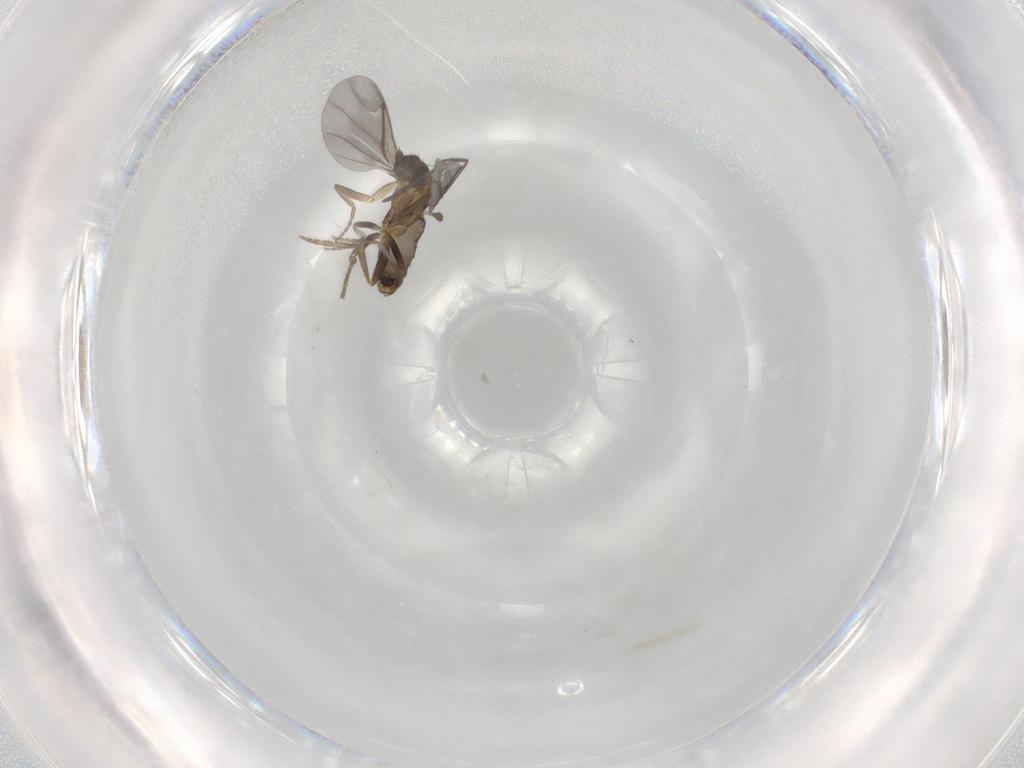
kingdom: Animalia
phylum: Arthropoda
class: Insecta
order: Diptera
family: Phoridae
